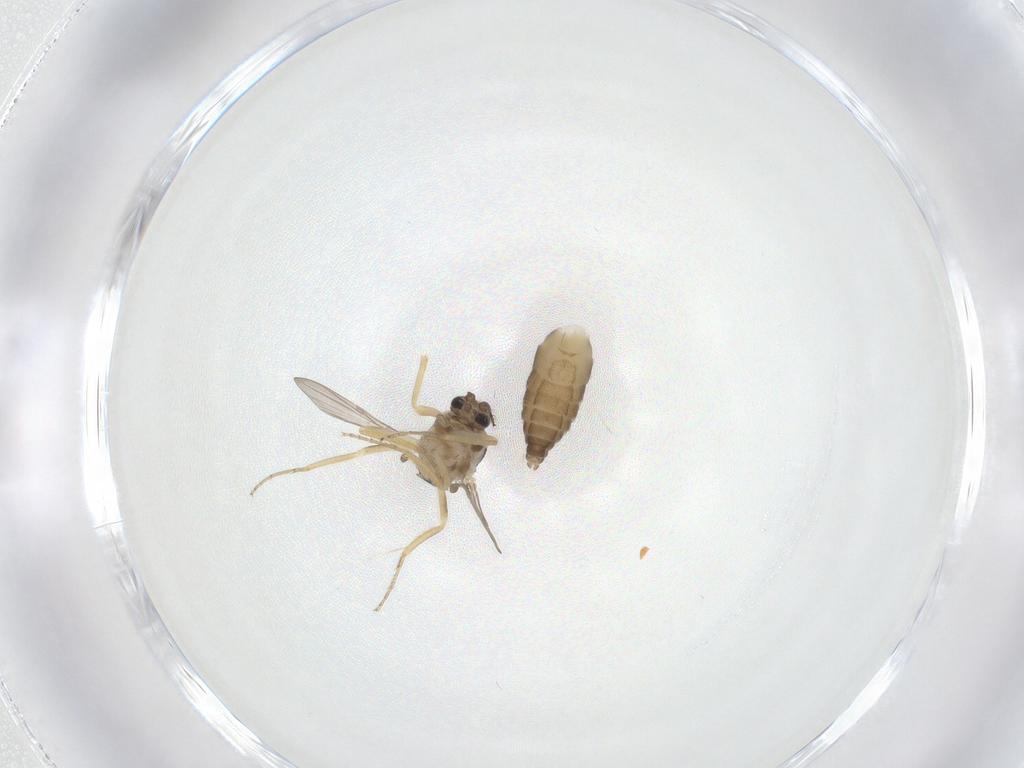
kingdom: Animalia
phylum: Arthropoda
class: Insecta
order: Diptera
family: Ceratopogonidae
